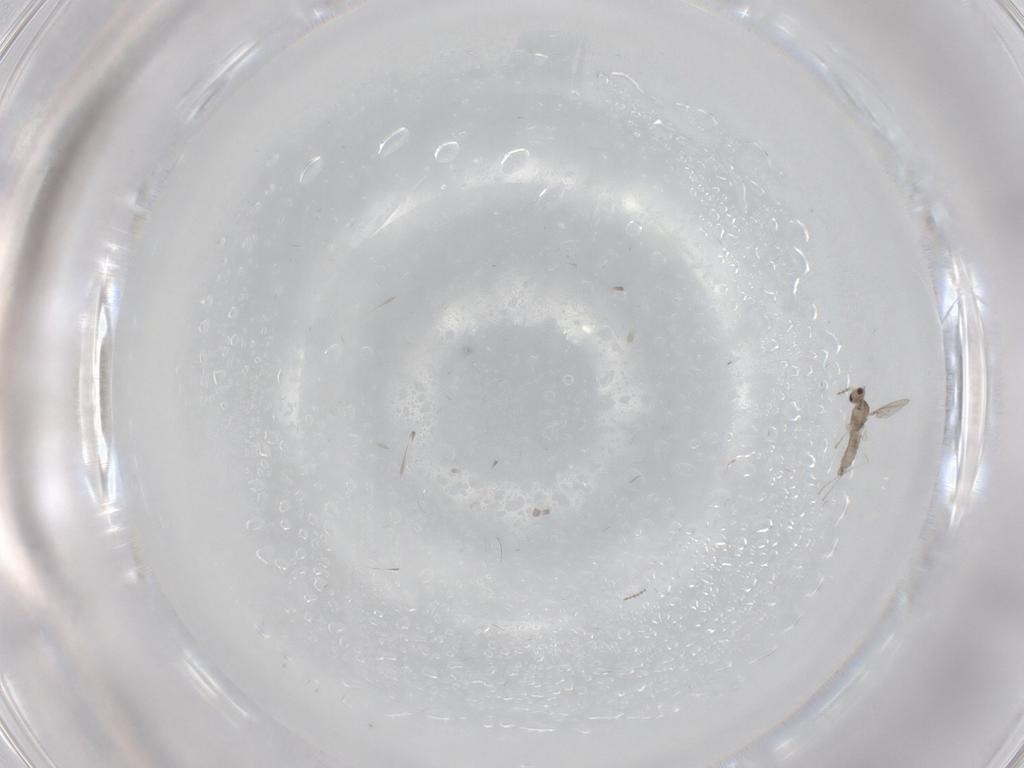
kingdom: Animalia
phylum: Arthropoda
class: Insecta
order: Diptera
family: Cecidomyiidae
